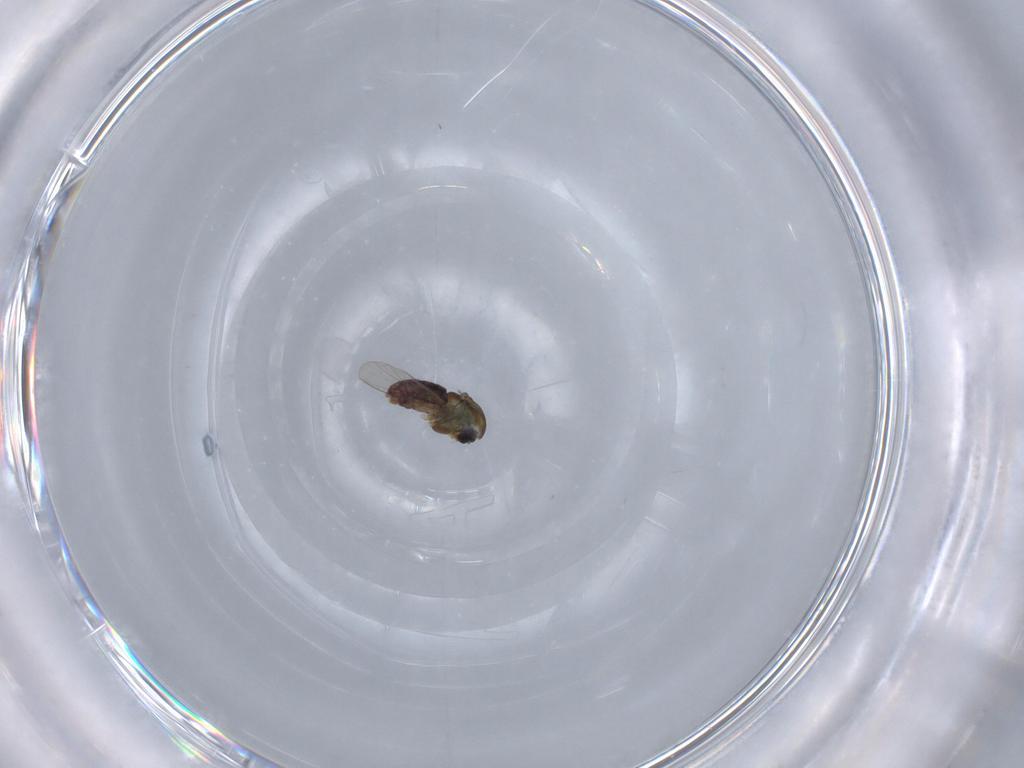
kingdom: Animalia
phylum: Arthropoda
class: Insecta
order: Diptera
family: Chironomidae
